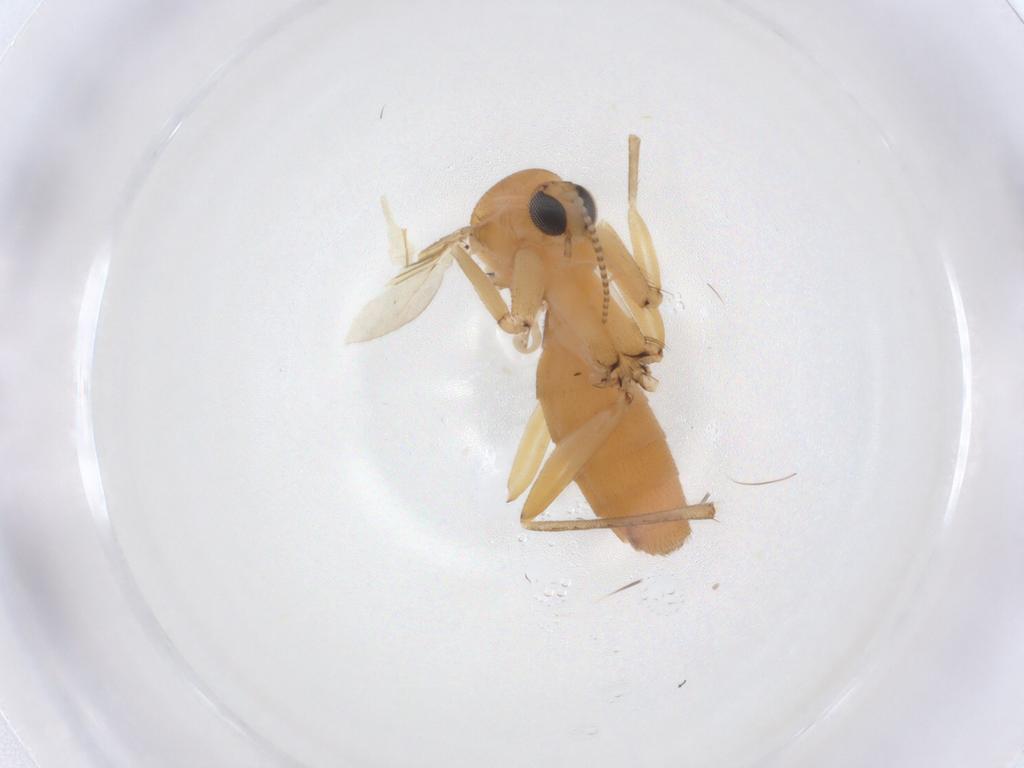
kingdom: Animalia
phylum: Arthropoda
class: Insecta
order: Diptera
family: Mycetophilidae
